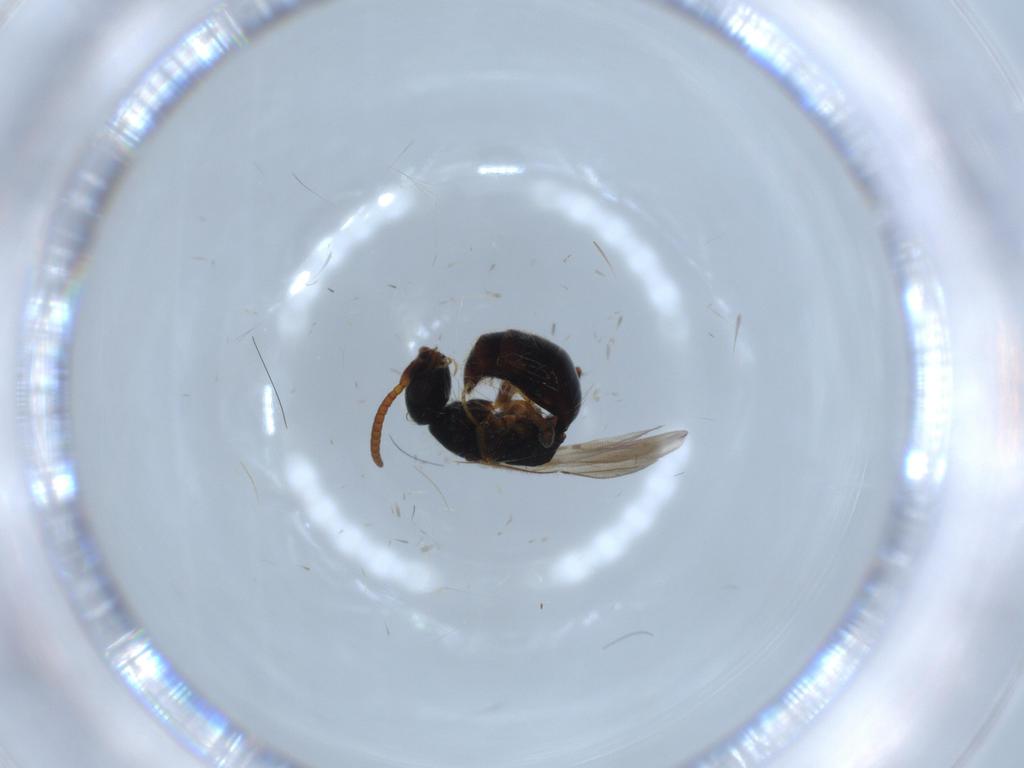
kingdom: Animalia
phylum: Arthropoda
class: Insecta
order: Hymenoptera
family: Bethylidae
